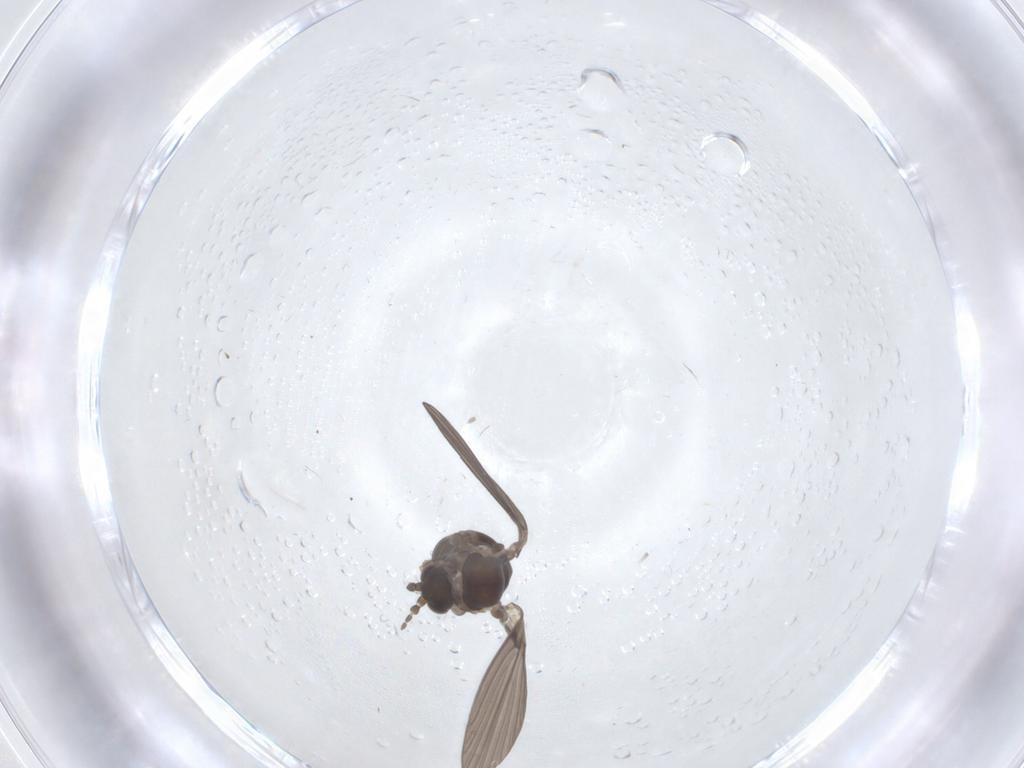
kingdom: Animalia
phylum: Arthropoda
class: Insecta
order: Diptera
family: Psychodidae
